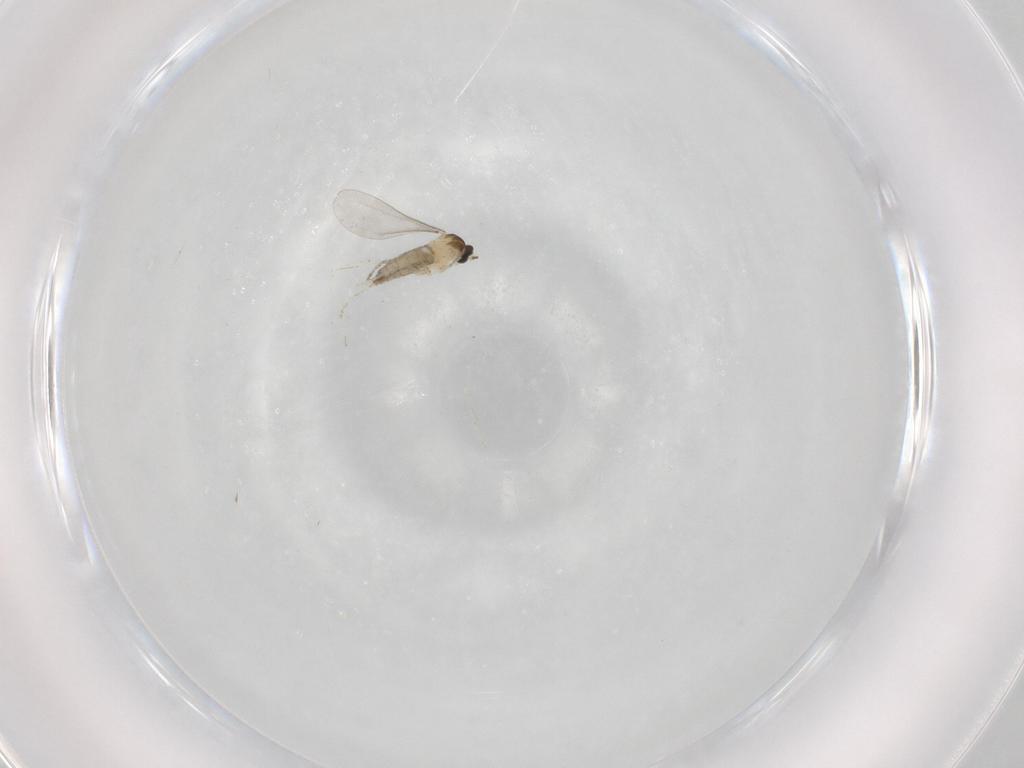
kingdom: Animalia
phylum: Arthropoda
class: Insecta
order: Diptera
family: Cecidomyiidae
